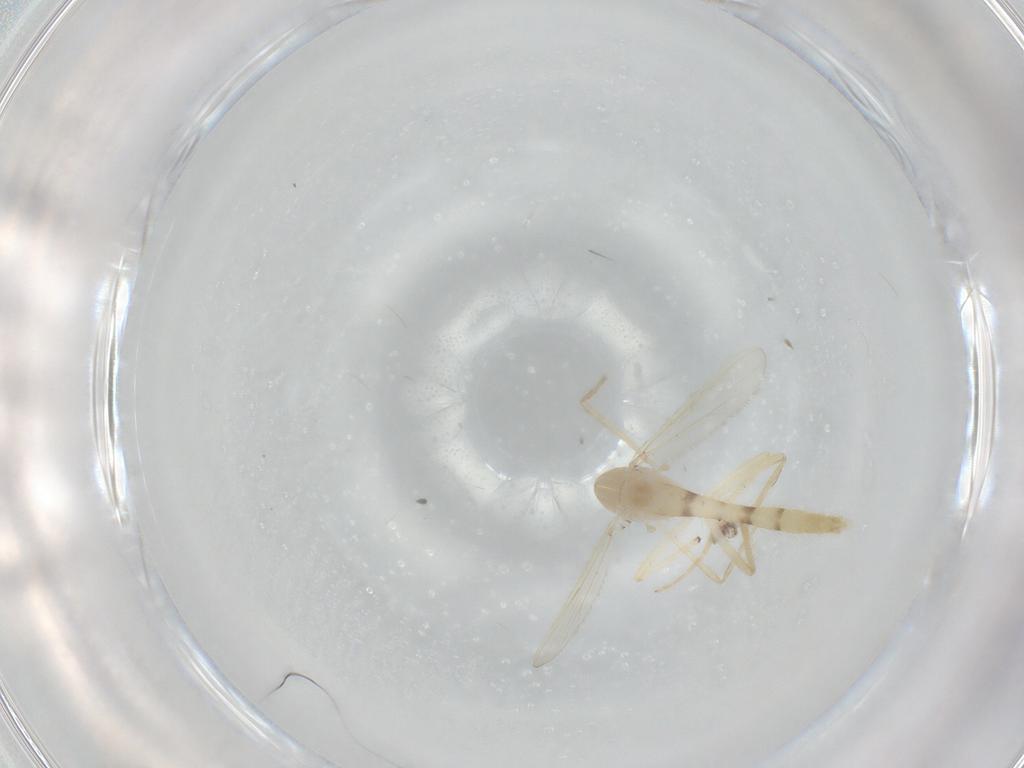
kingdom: Animalia
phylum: Arthropoda
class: Insecta
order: Diptera
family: Chironomidae
